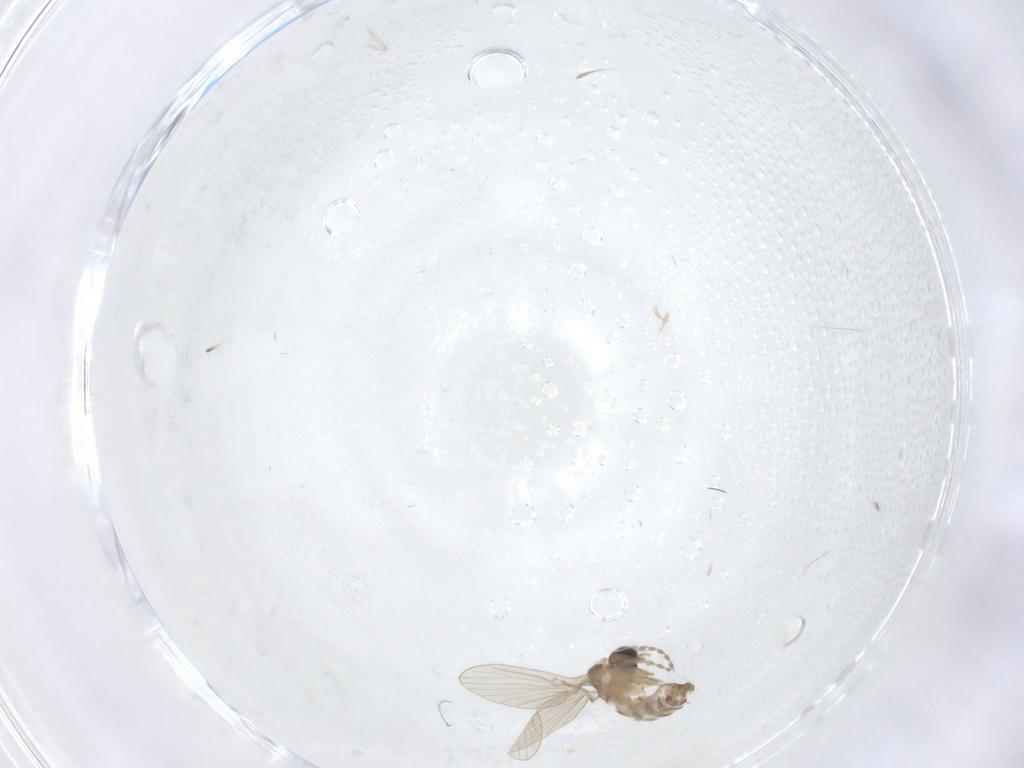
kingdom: Animalia
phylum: Arthropoda
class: Insecta
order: Diptera
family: Psychodidae
